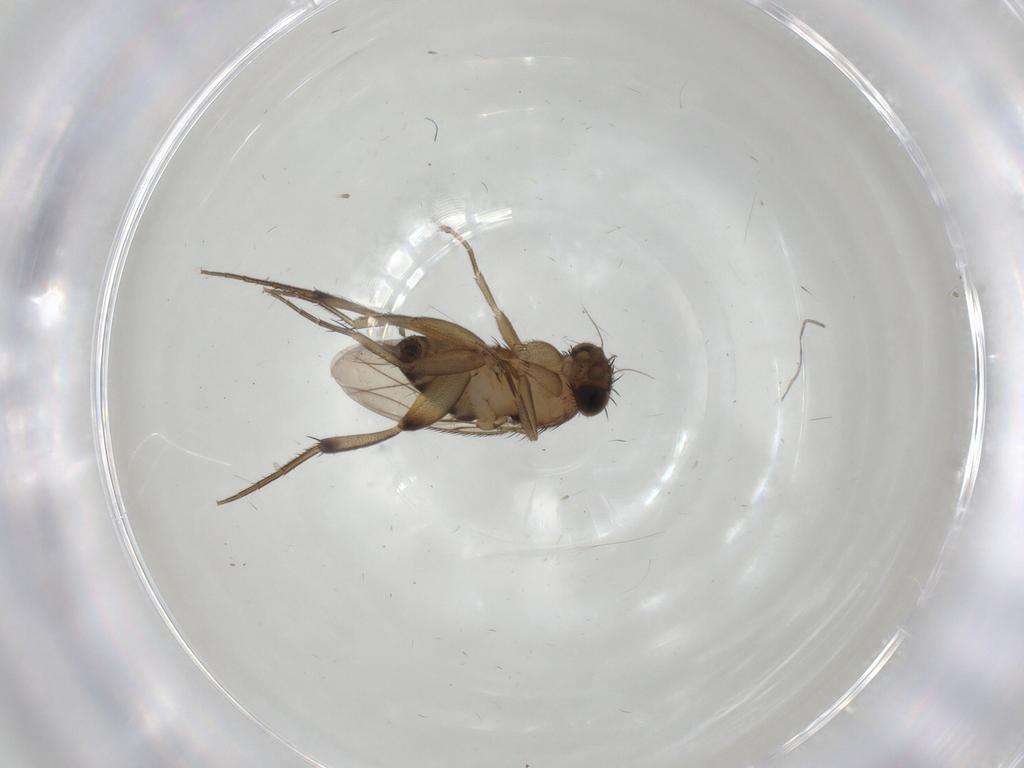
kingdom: Animalia
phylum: Arthropoda
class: Insecta
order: Diptera
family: Phoridae
